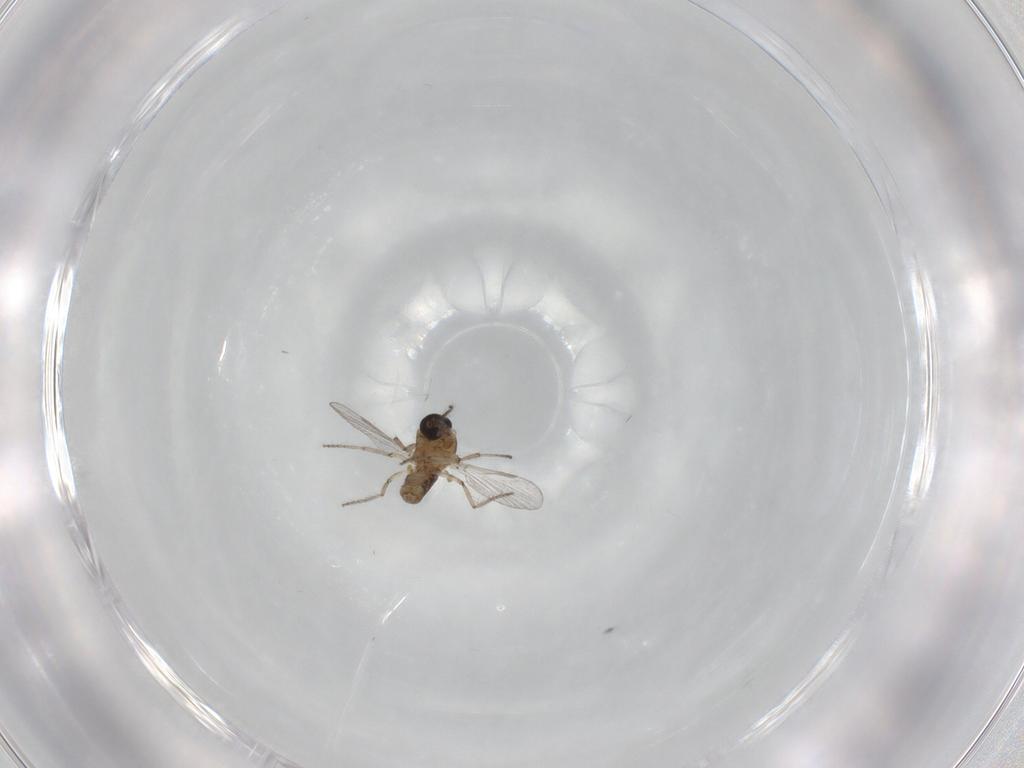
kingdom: Animalia
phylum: Arthropoda
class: Insecta
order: Diptera
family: Ceratopogonidae
